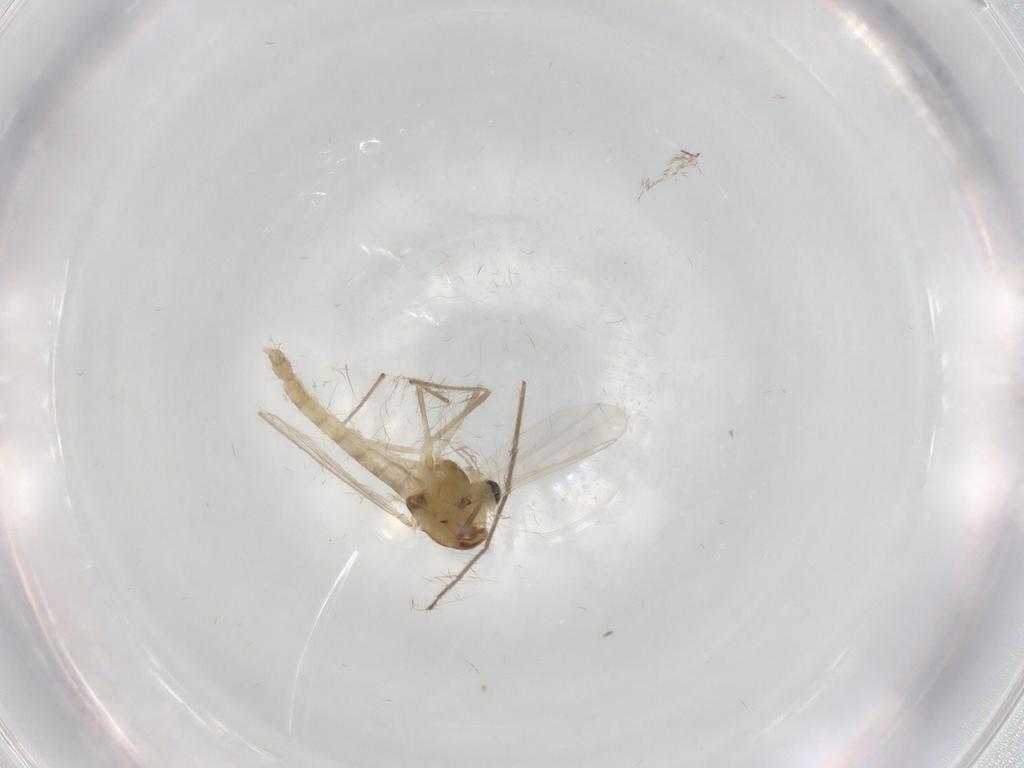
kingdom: Animalia
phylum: Arthropoda
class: Insecta
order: Diptera
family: Chironomidae
